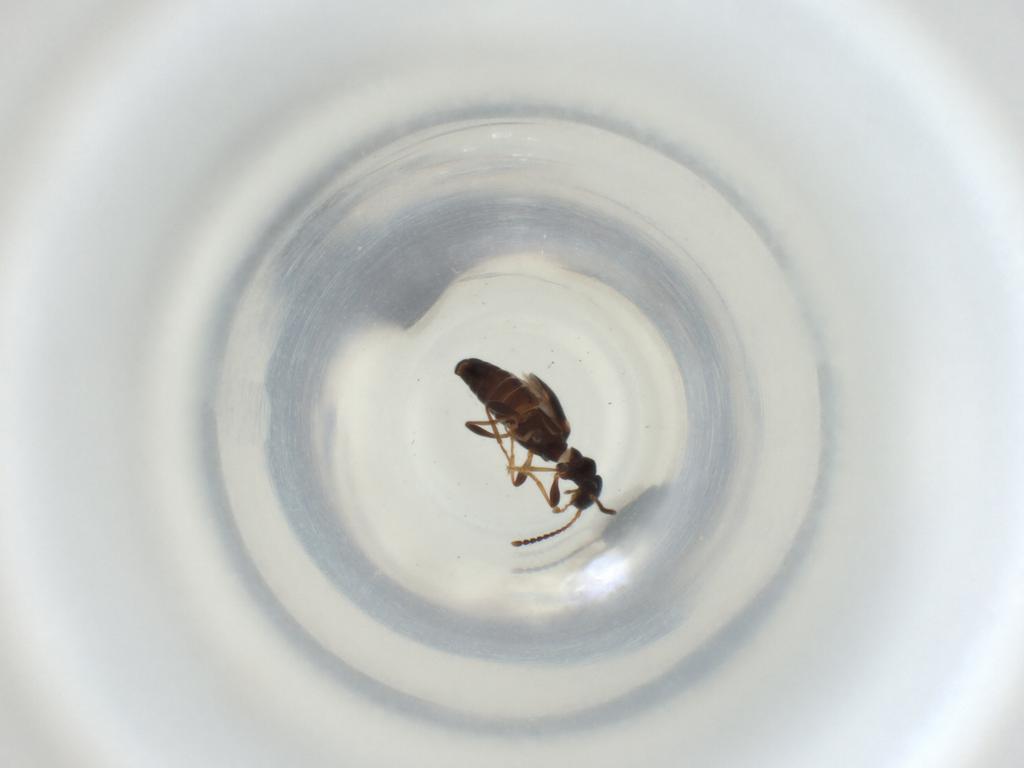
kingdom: Animalia
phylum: Arthropoda
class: Insecta
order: Coleoptera
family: Anthicidae
